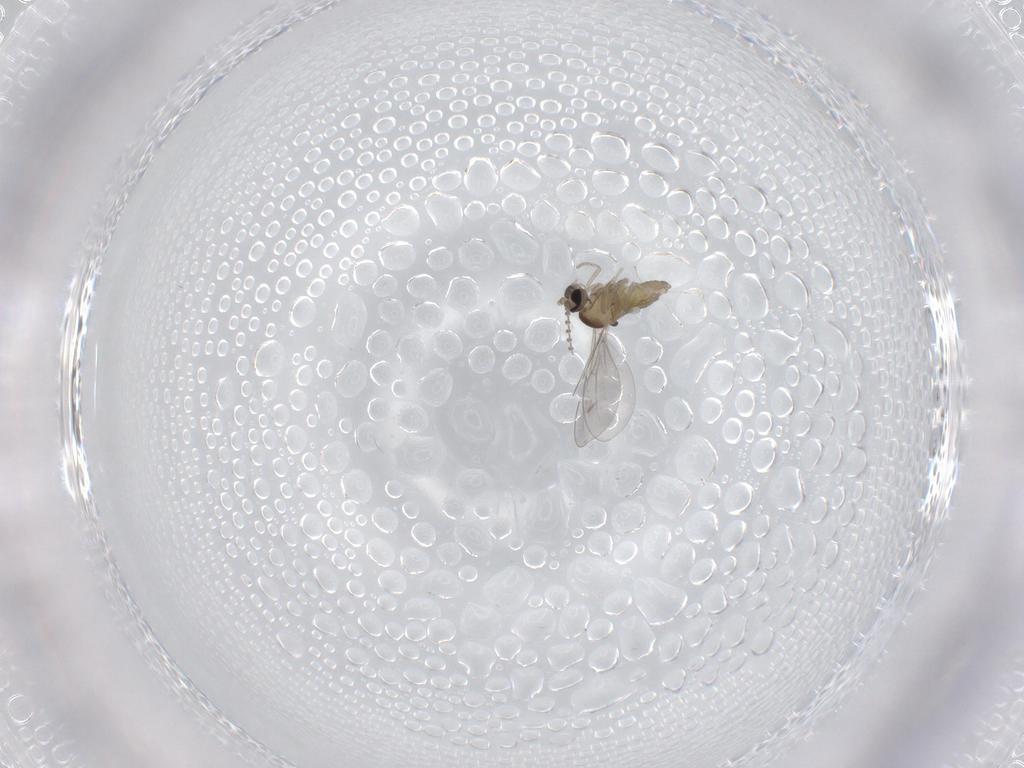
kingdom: Animalia
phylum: Arthropoda
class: Insecta
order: Diptera
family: Cecidomyiidae
